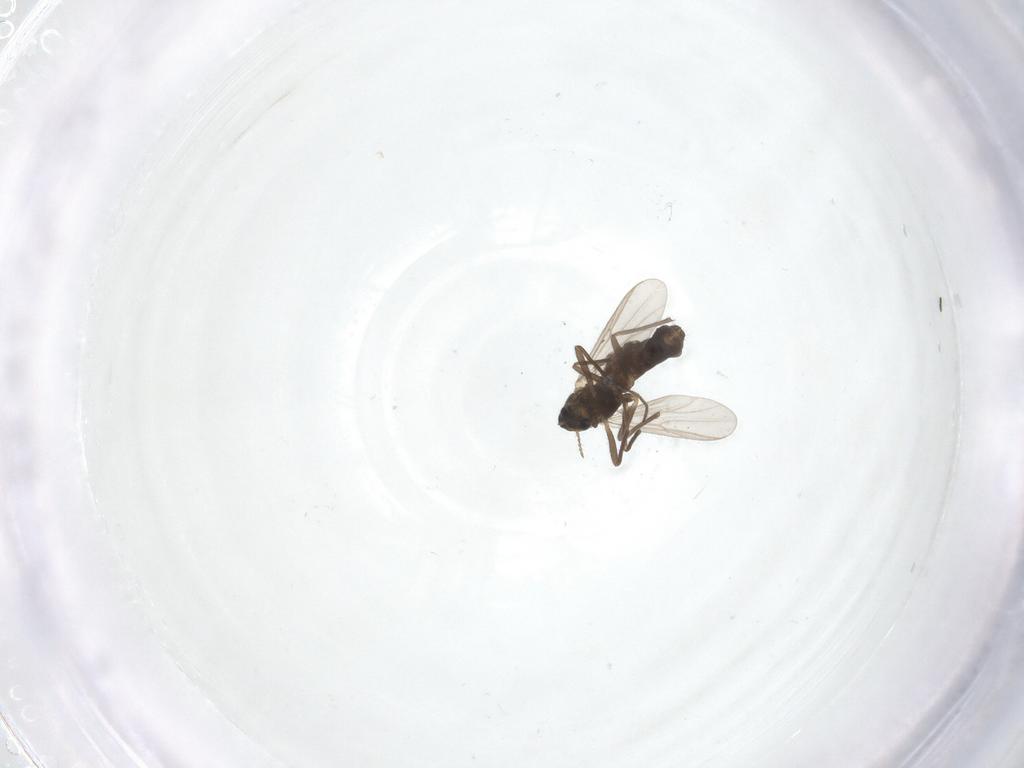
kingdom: Animalia
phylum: Arthropoda
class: Insecta
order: Diptera
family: Chironomidae
